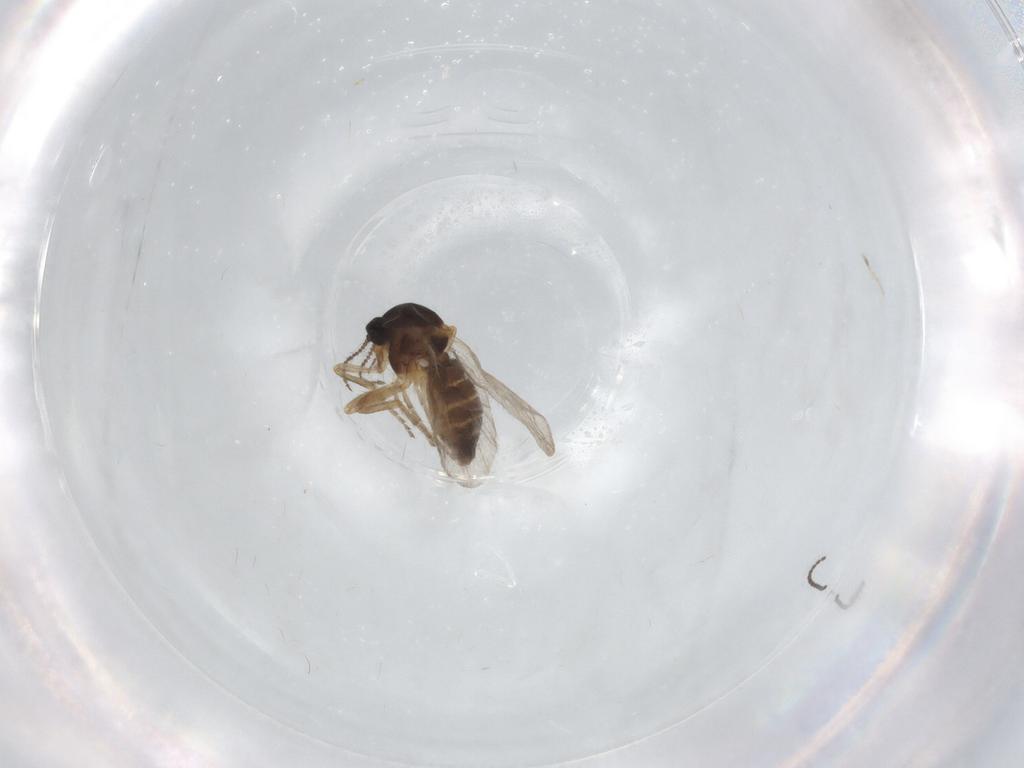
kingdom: Animalia
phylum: Arthropoda
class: Insecta
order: Diptera
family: Ceratopogonidae
